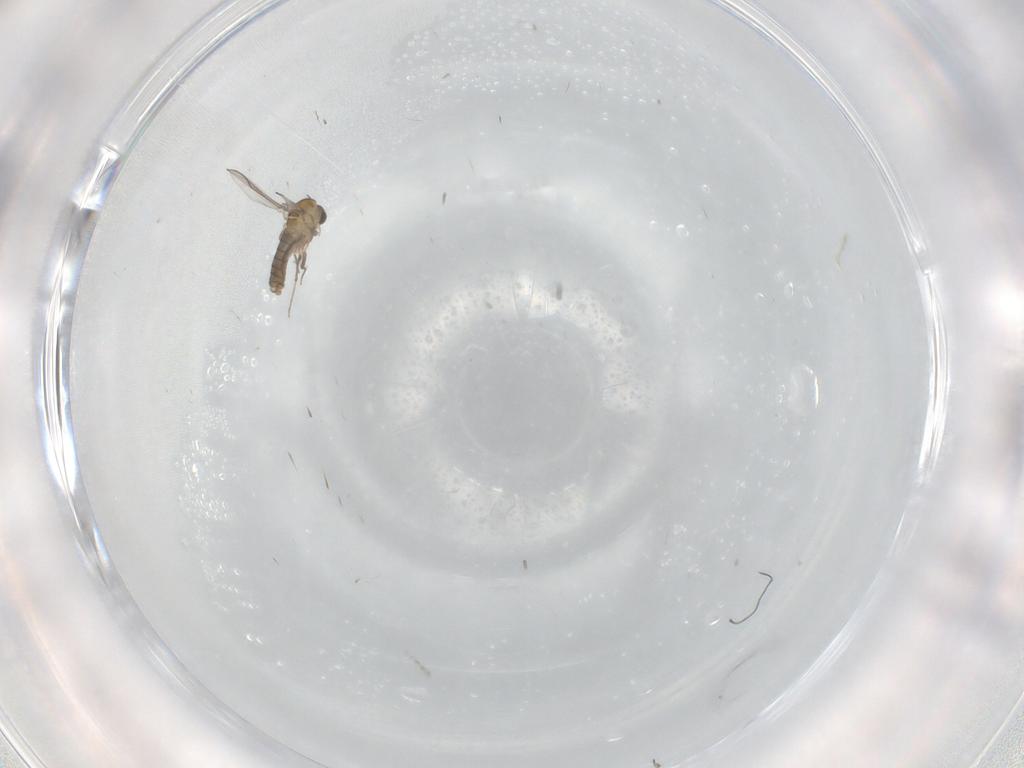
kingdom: Animalia
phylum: Arthropoda
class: Insecta
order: Diptera
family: Chironomidae
